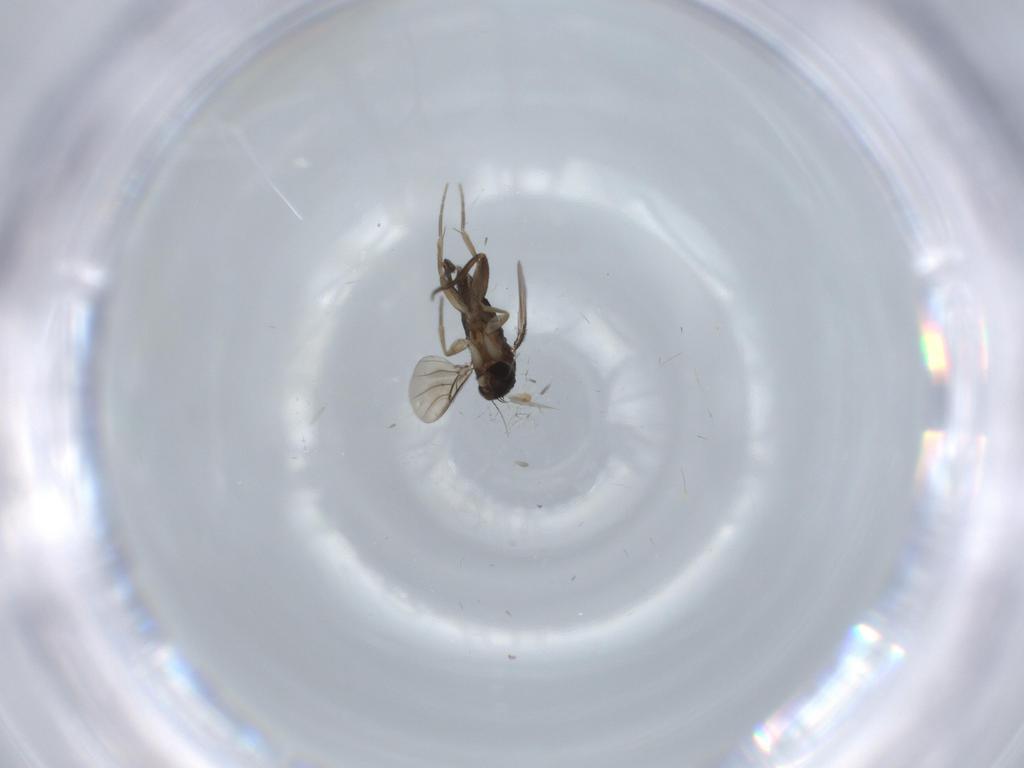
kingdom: Animalia
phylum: Arthropoda
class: Insecta
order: Diptera
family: Phoridae
